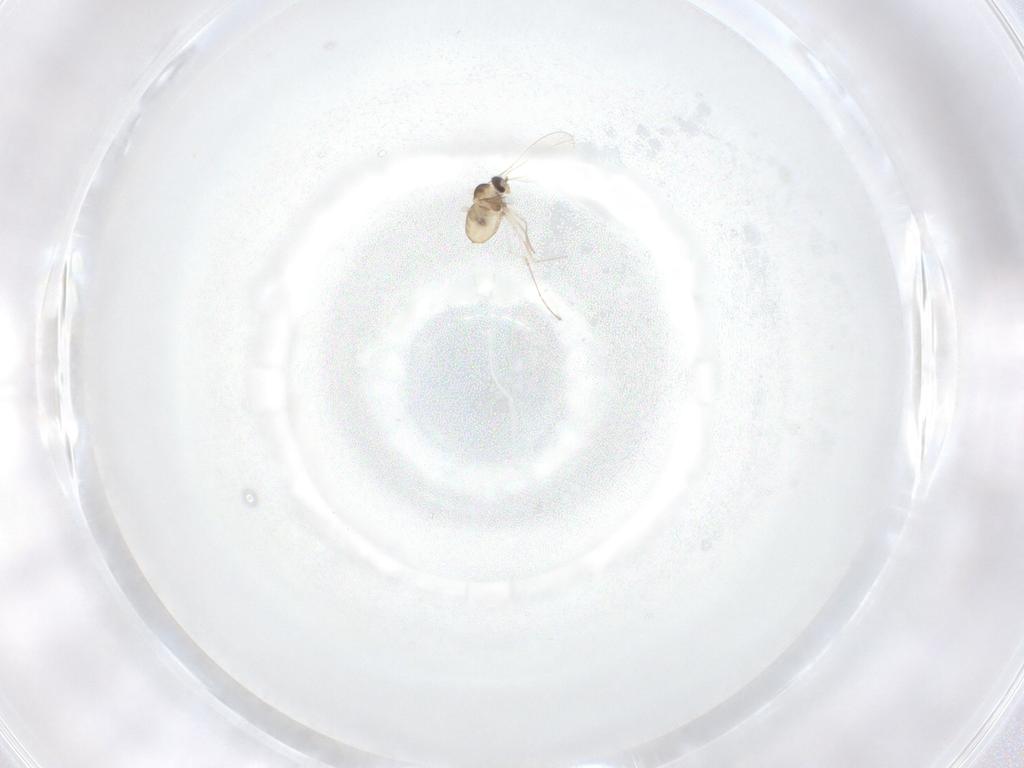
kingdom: Animalia
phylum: Arthropoda
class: Insecta
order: Diptera
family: Cecidomyiidae
